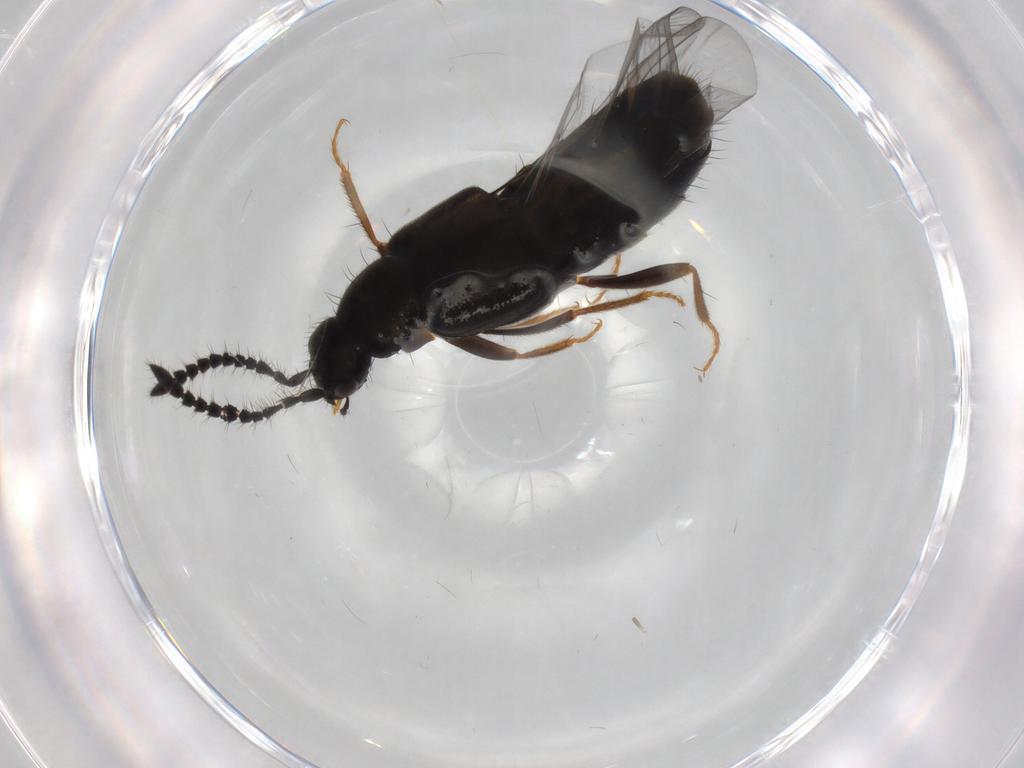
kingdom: Animalia
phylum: Arthropoda
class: Insecta
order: Coleoptera
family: Staphylinidae
